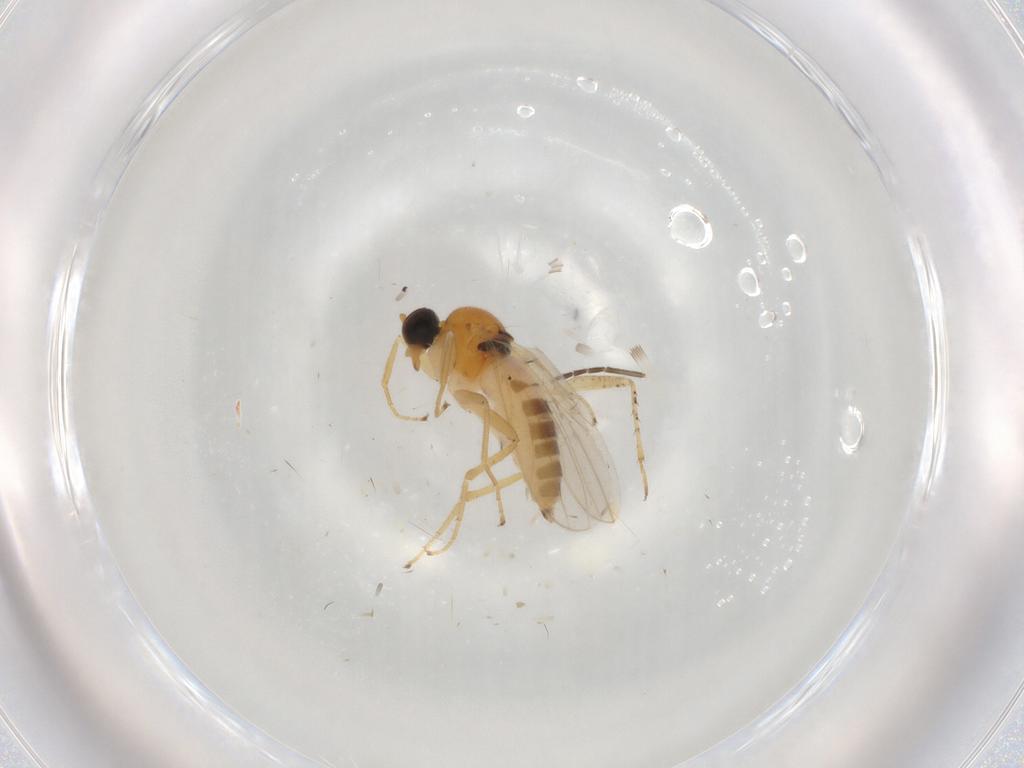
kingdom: Animalia
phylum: Arthropoda
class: Insecta
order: Diptera
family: Hybotidae
